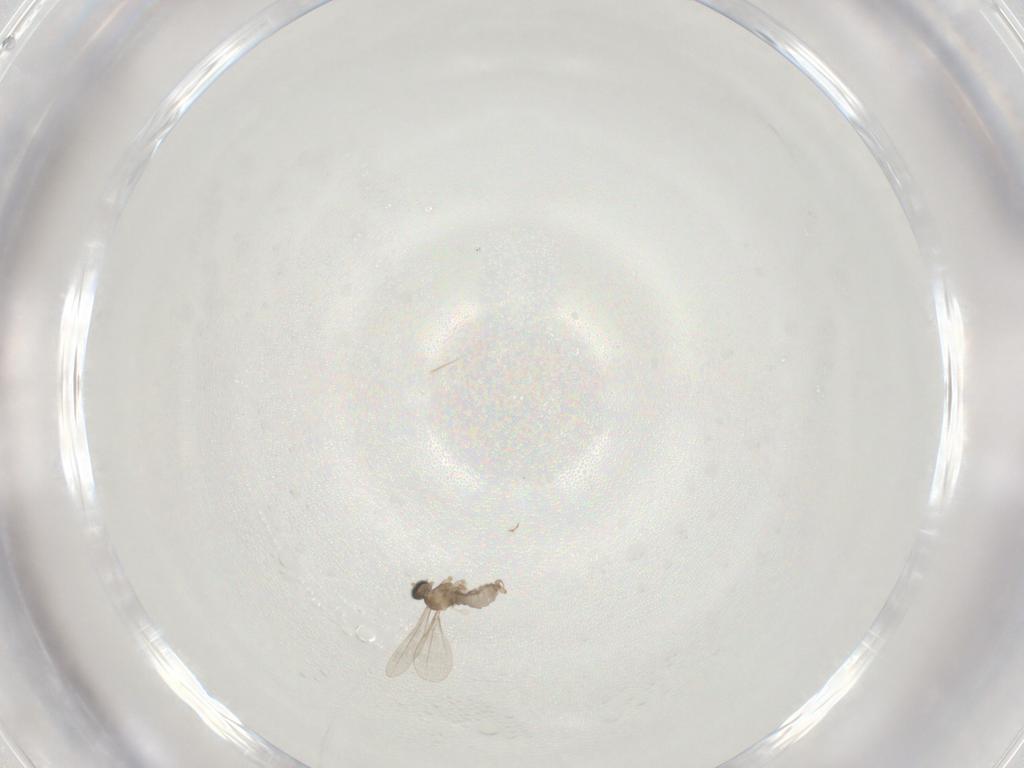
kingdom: Animalia
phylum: Arthropoda
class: Insecta
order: Diptera
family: Cecidomyiidae
